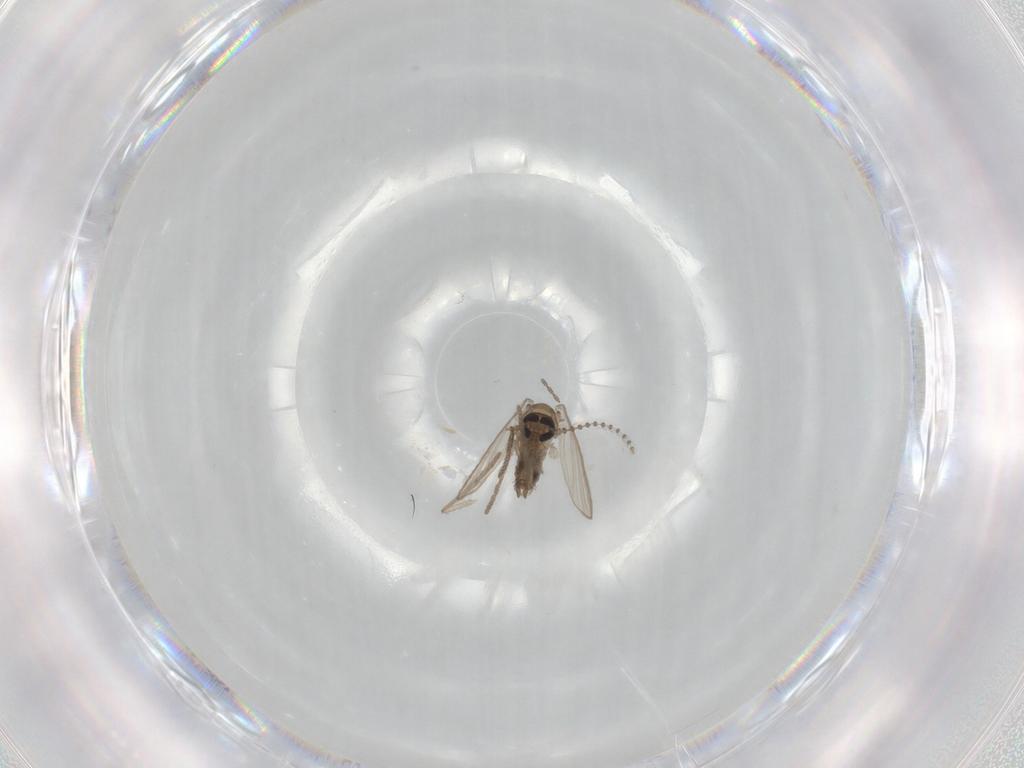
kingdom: Animalia
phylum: Arthropoda
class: Insecta
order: Diptera
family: Psychodidae
